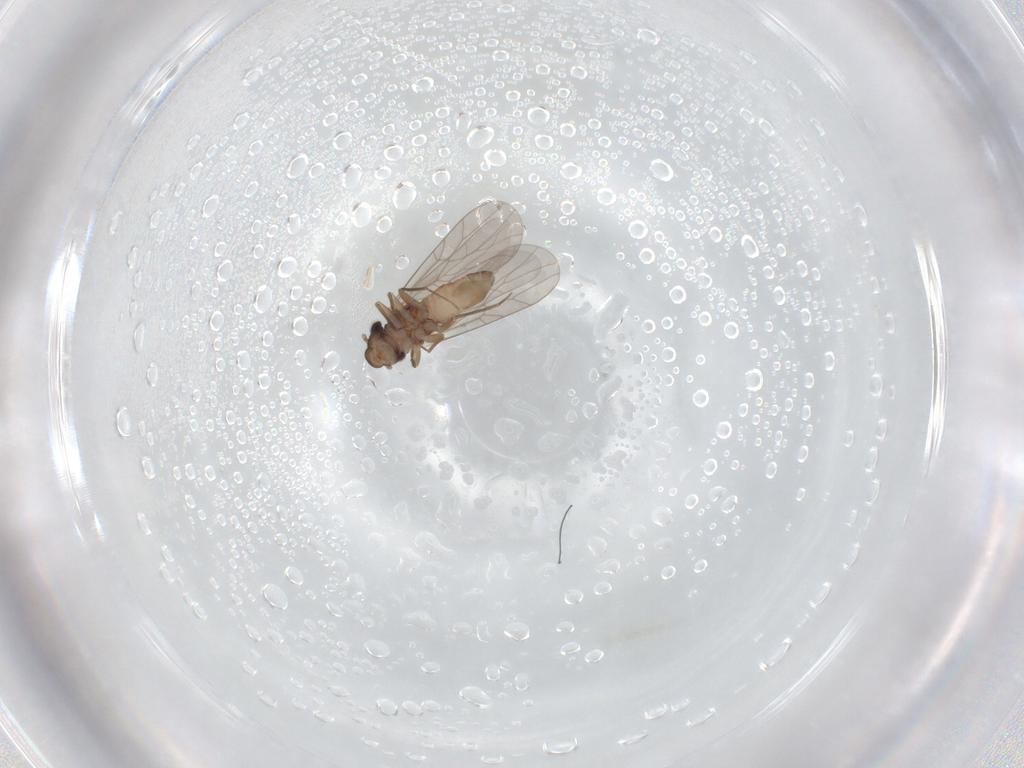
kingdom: Animalia
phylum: Arthropoda
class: Insecta
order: Psocodea
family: Lepidopsocidae
